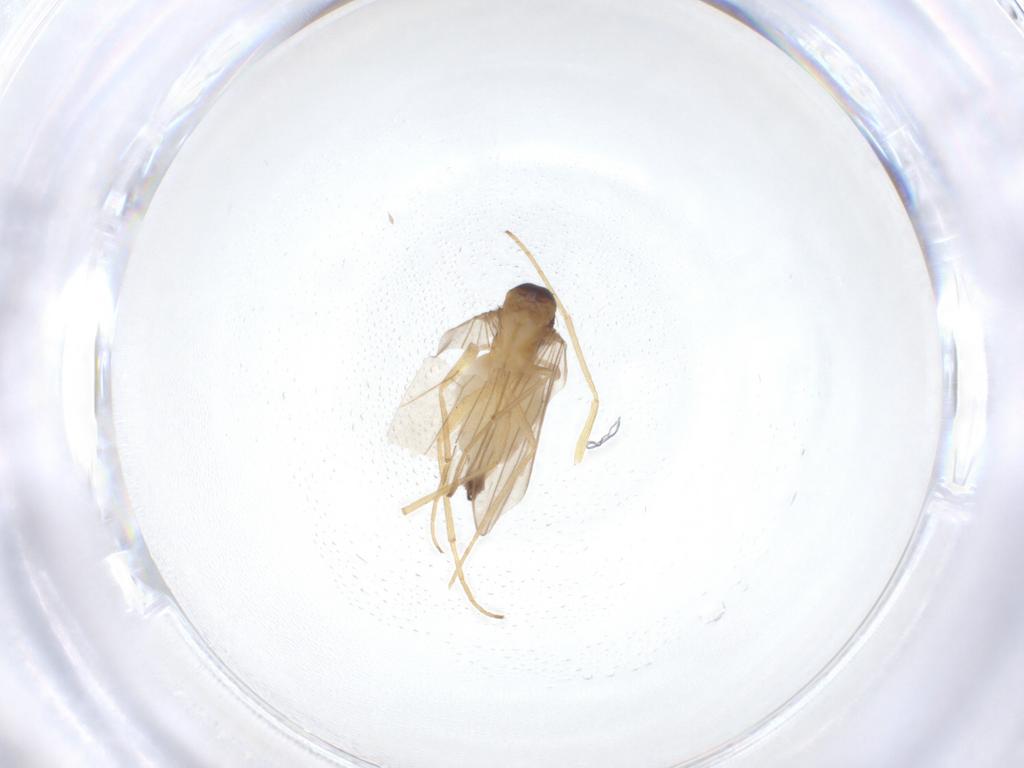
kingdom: Animalia
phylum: Arthropoda
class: Insecta
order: Diptera
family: Dolichopodidae
